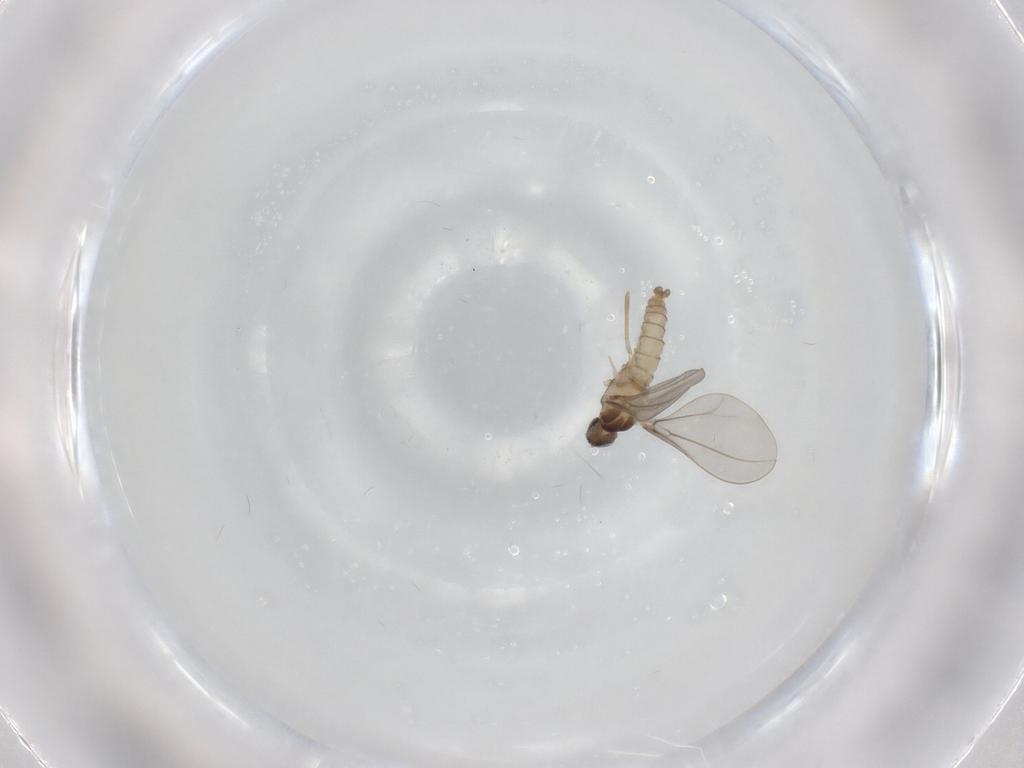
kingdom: Animalia
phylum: Arthropoda
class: Insecta
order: Diptera
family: Cecidomyiidae
